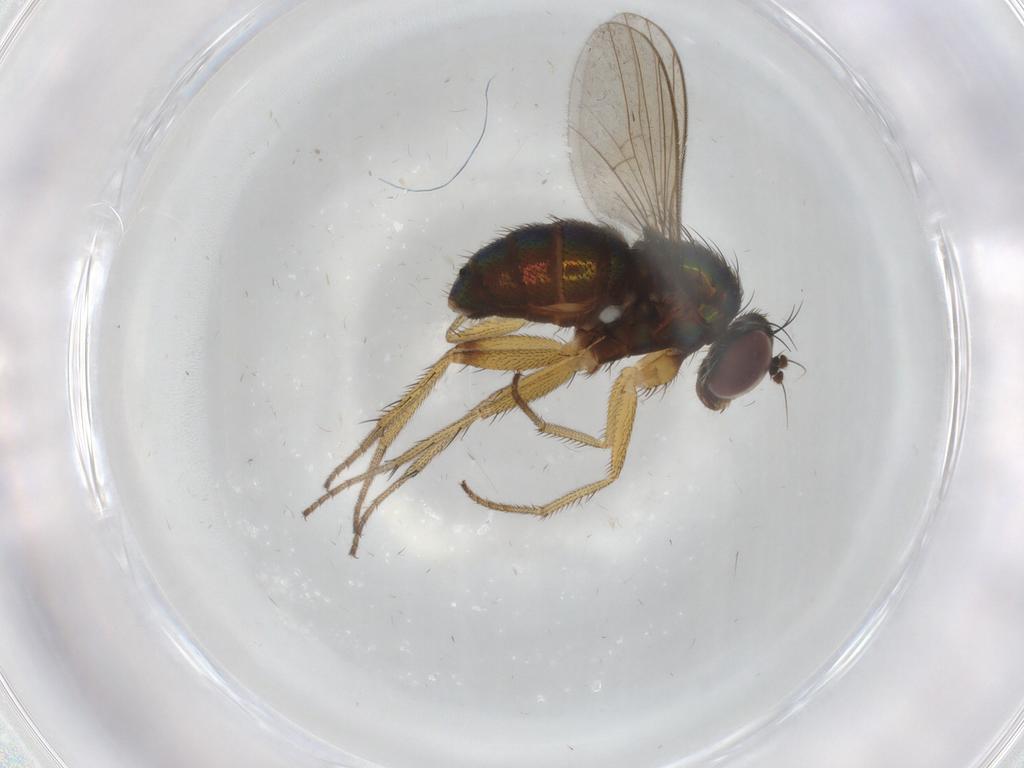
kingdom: Animalia
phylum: Arthropoda
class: Insecta
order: Diptera
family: Dolichopodidae
